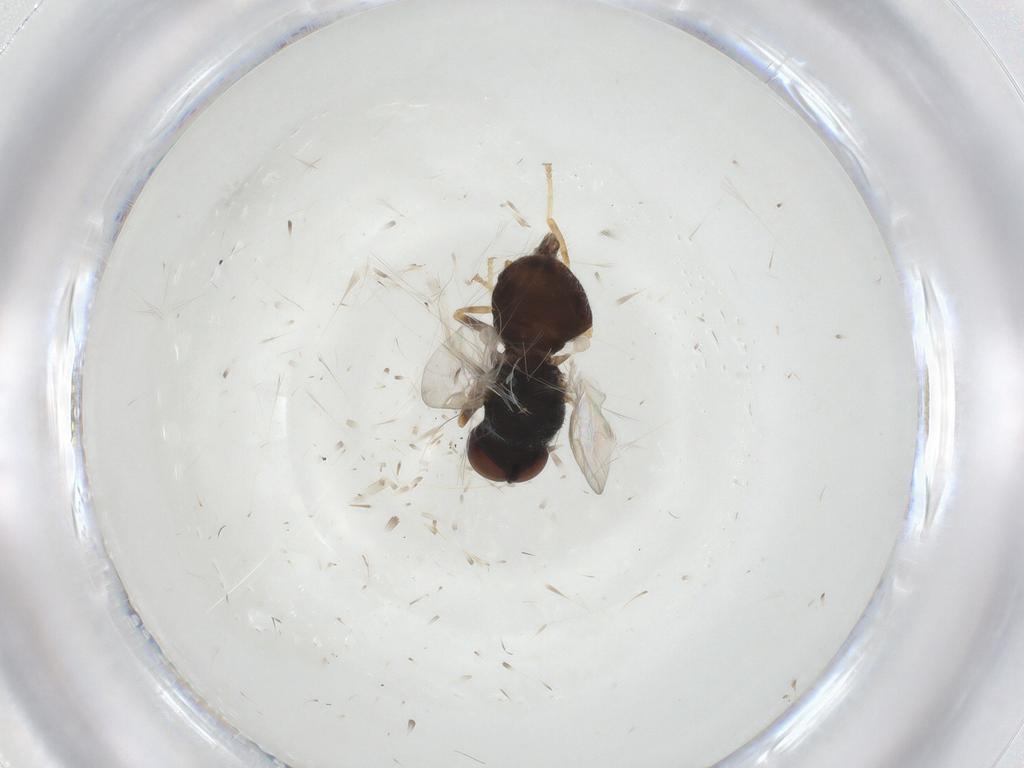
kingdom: Animalia
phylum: Arthropoda
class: Insecta
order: Diptera
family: Stratiomyidae
